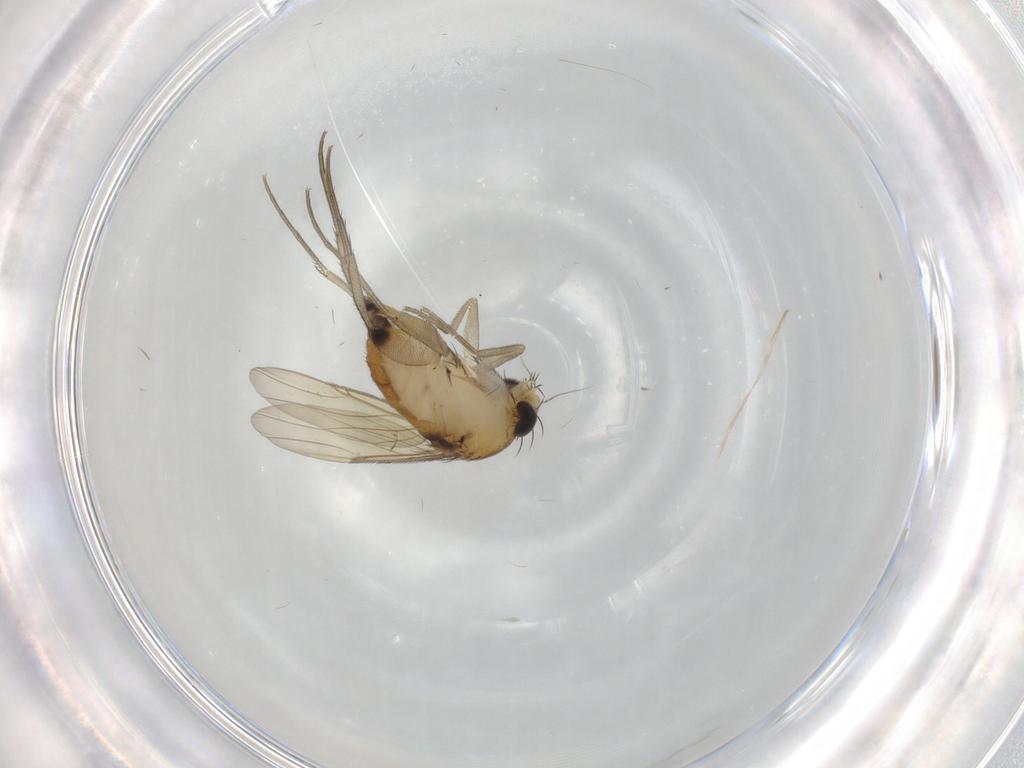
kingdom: Animalia
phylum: Arthropoda
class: Insecta
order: Diptera
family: Phoridae
